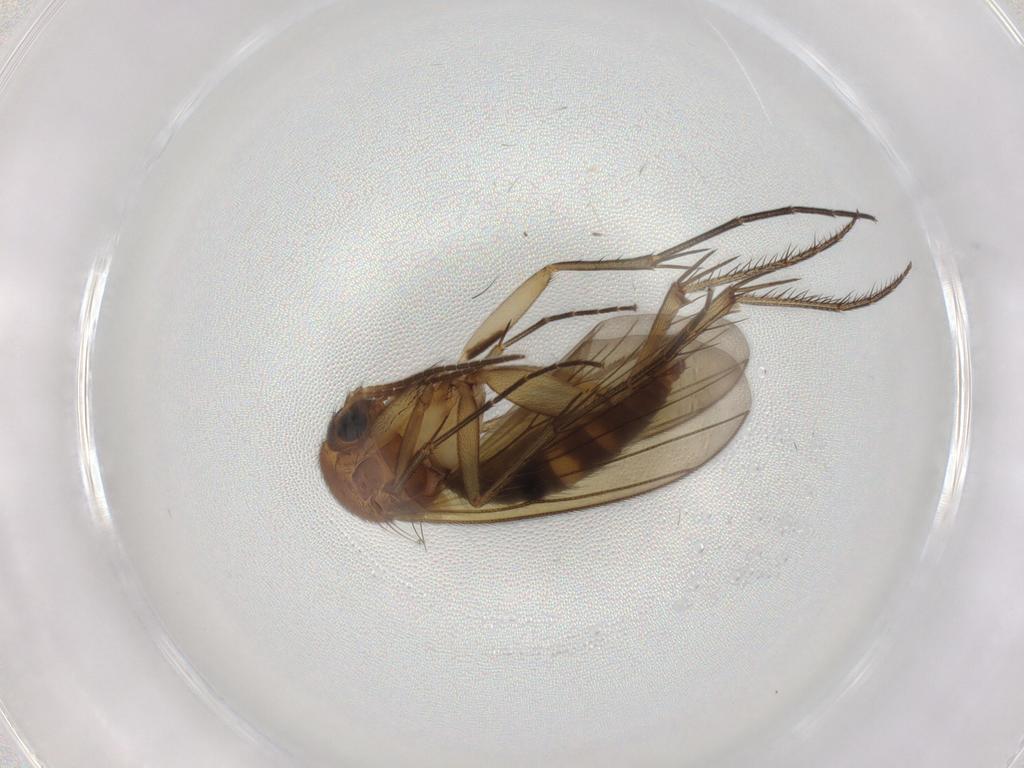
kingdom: Animalia
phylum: Arthropoda
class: Insecta
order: Diptera
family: Mycetophilidae
